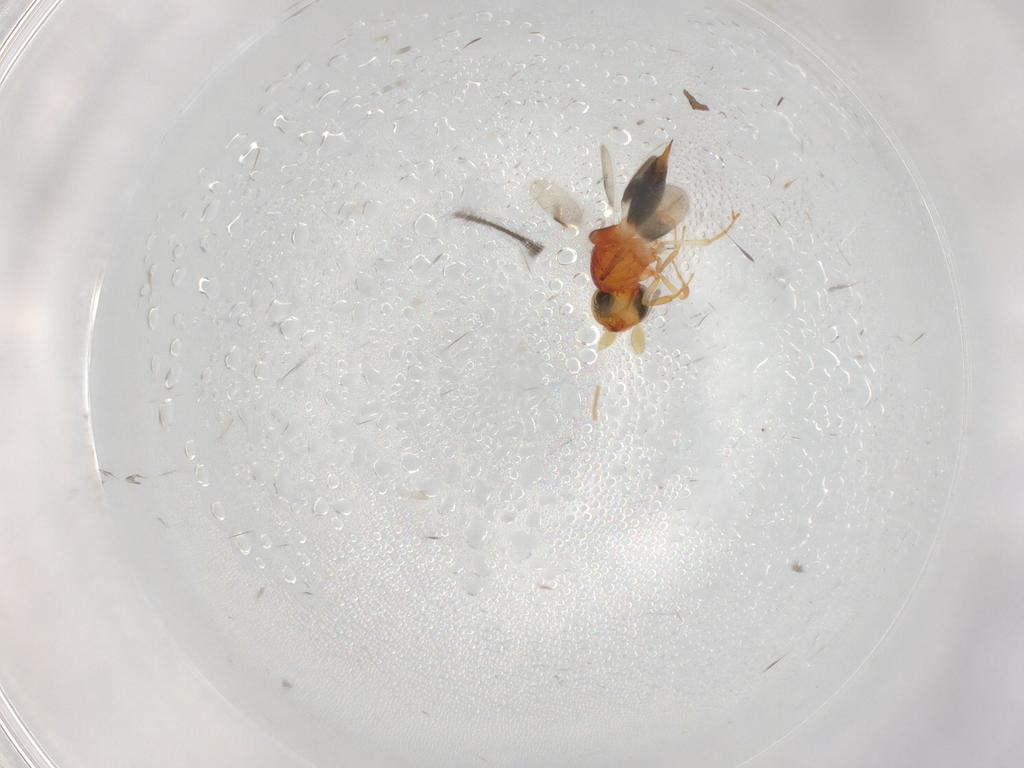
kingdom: Animalia
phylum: Arthropoda
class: Insecta
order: Hymenoptera
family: Scelionidae
